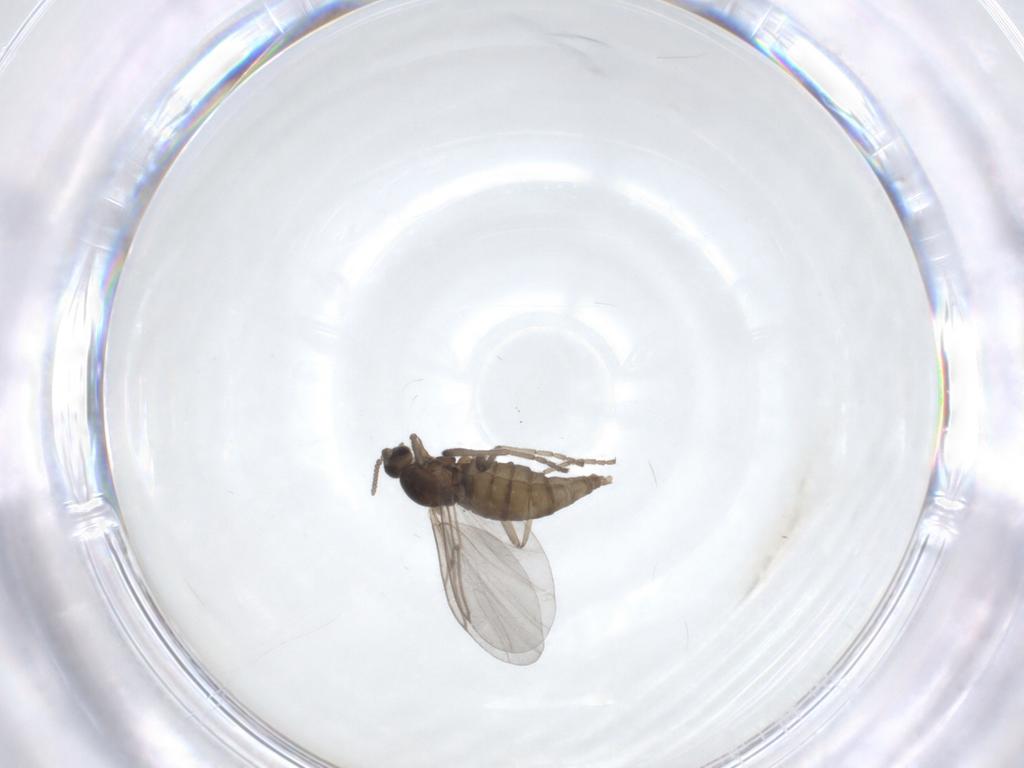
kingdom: Animalia
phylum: Arthropoda
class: Insecta
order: Diptera
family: Cecidomyiidae
